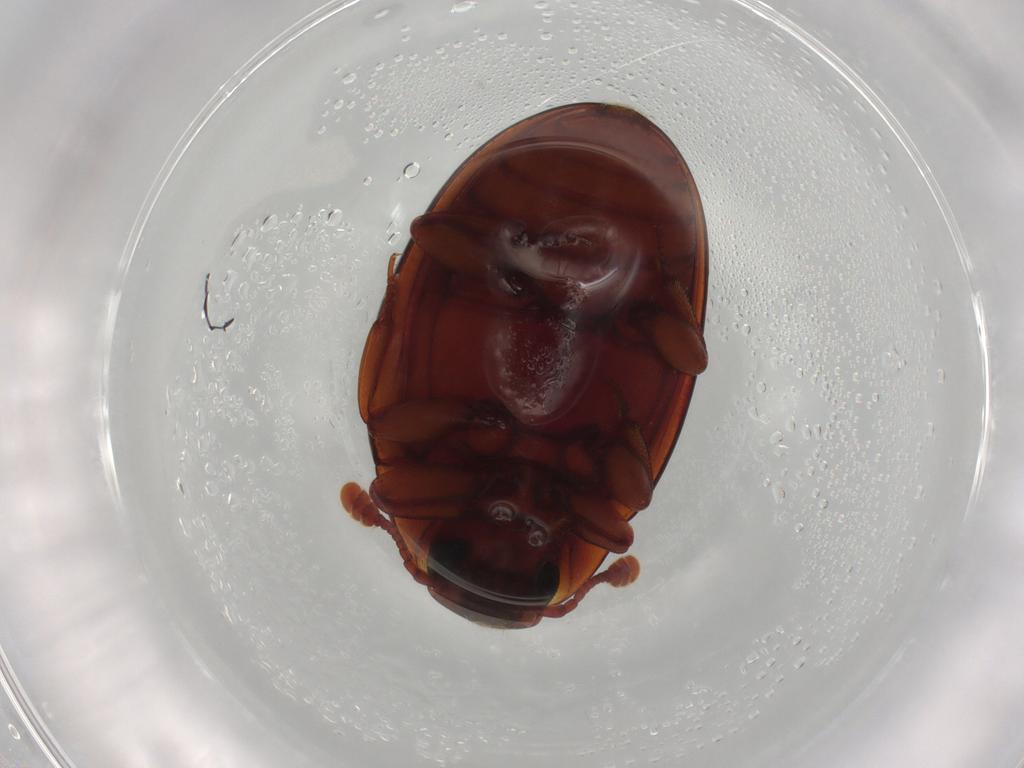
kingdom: Animalia
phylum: Arthropoda
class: Insecta
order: Coleoptera
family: Zopheridae
